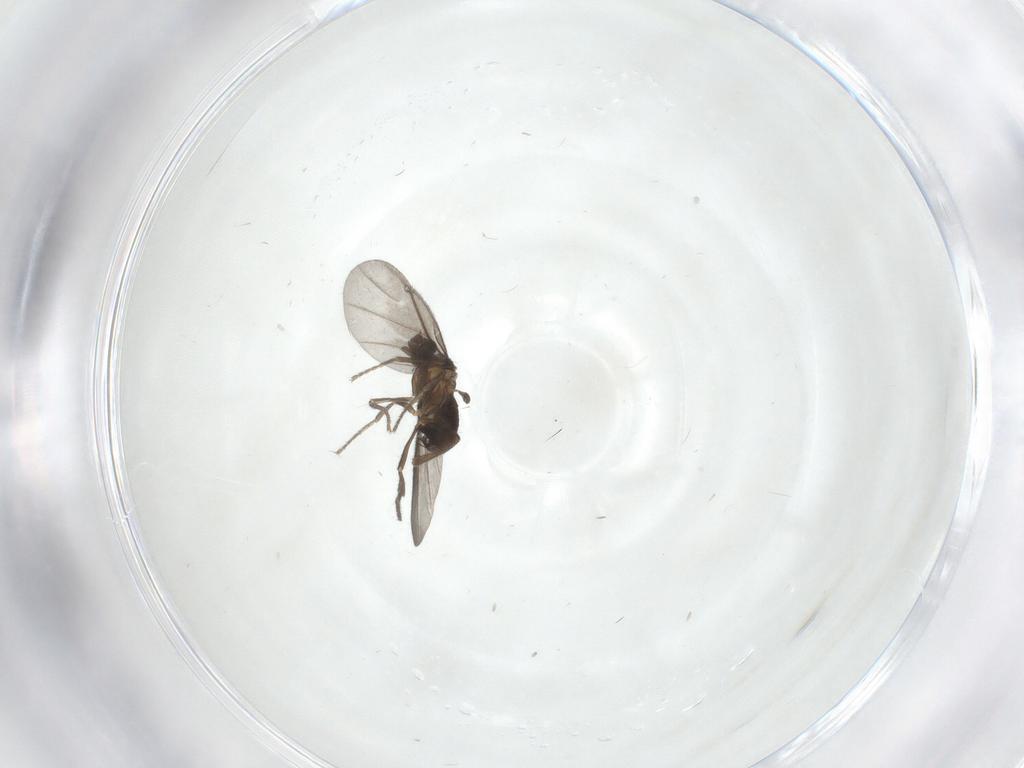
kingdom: Animalia
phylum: Arthropoda
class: Insecta
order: Diptera
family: Phoridae
